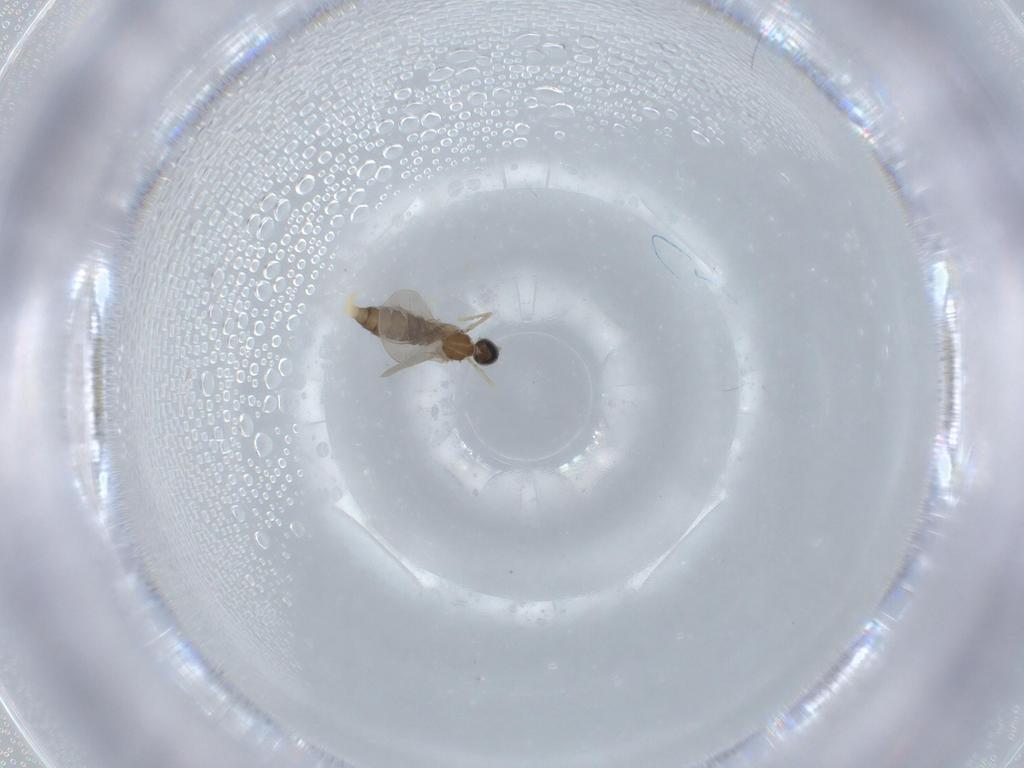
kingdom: Animalia
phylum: Arthropoda
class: Insecta
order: Diptera
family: Cecidomyiidae
